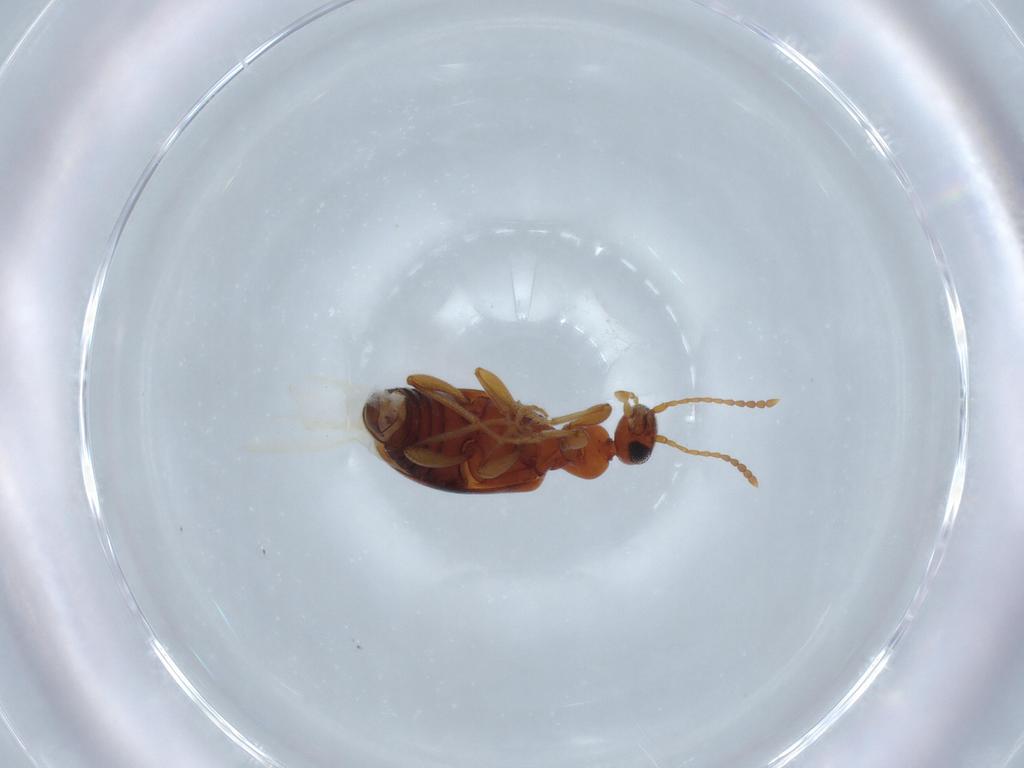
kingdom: Animalia
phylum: Arthropoda
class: Insecta
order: Coleoptera
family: Anthicidae
